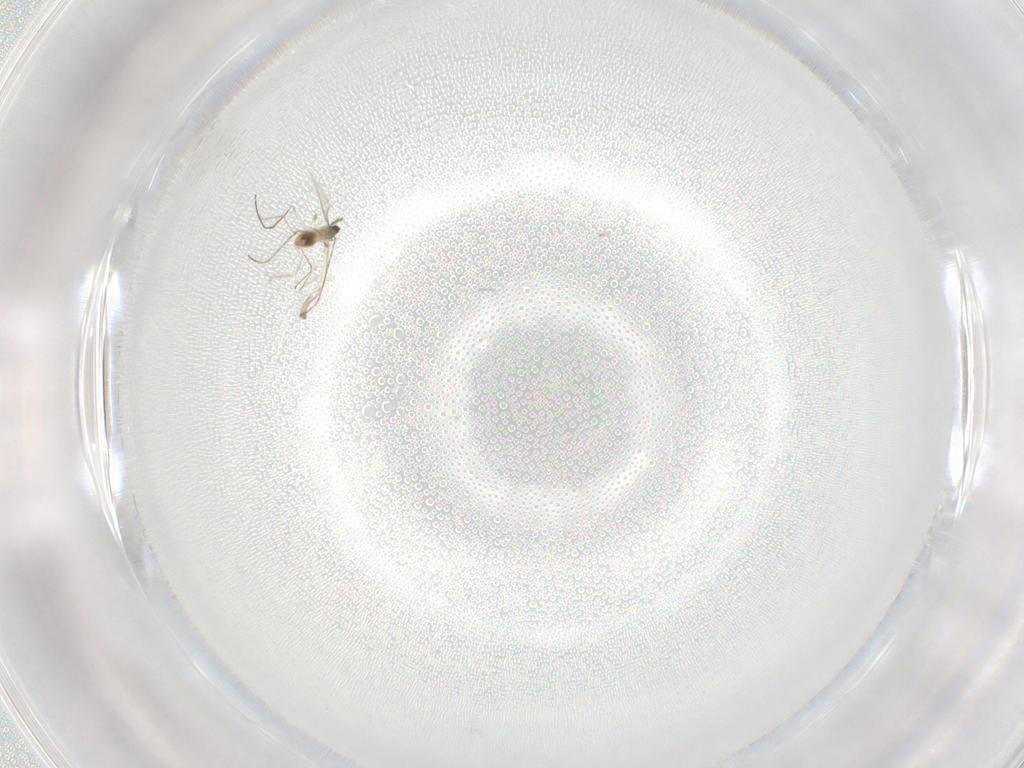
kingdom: Animalia
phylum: Arthropoda
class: Insecta
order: Diptera
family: Cecidomyiidae
